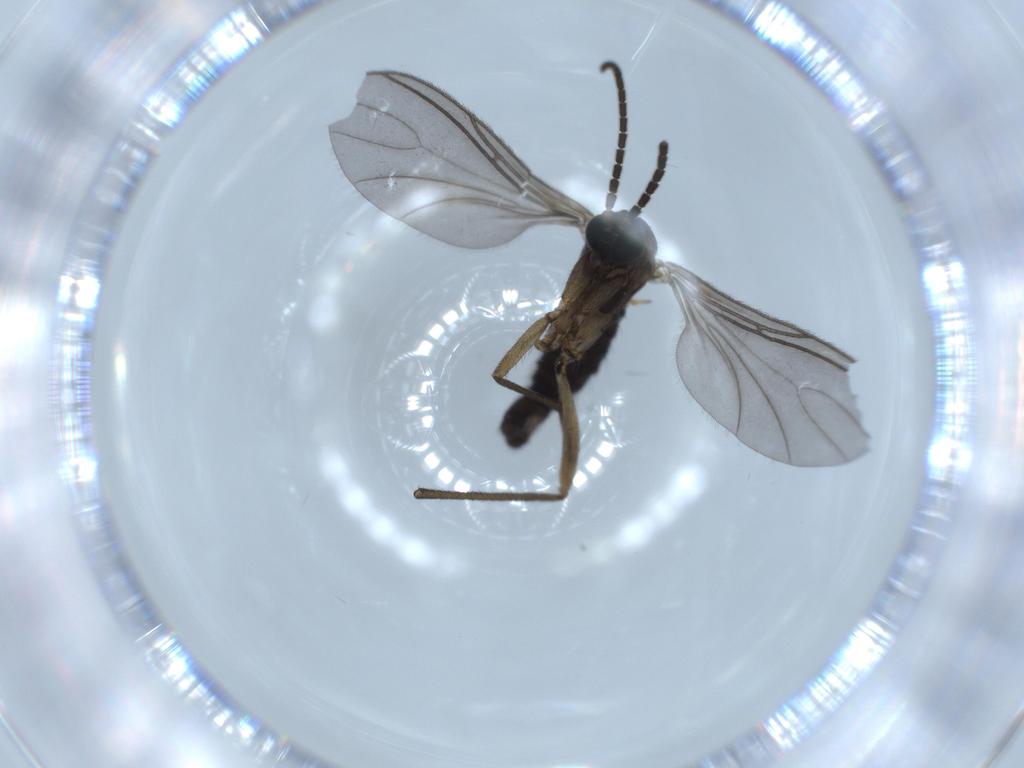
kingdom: Animalia
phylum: Arthropoda
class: Insecta
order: Diptera
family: Sciaridae
